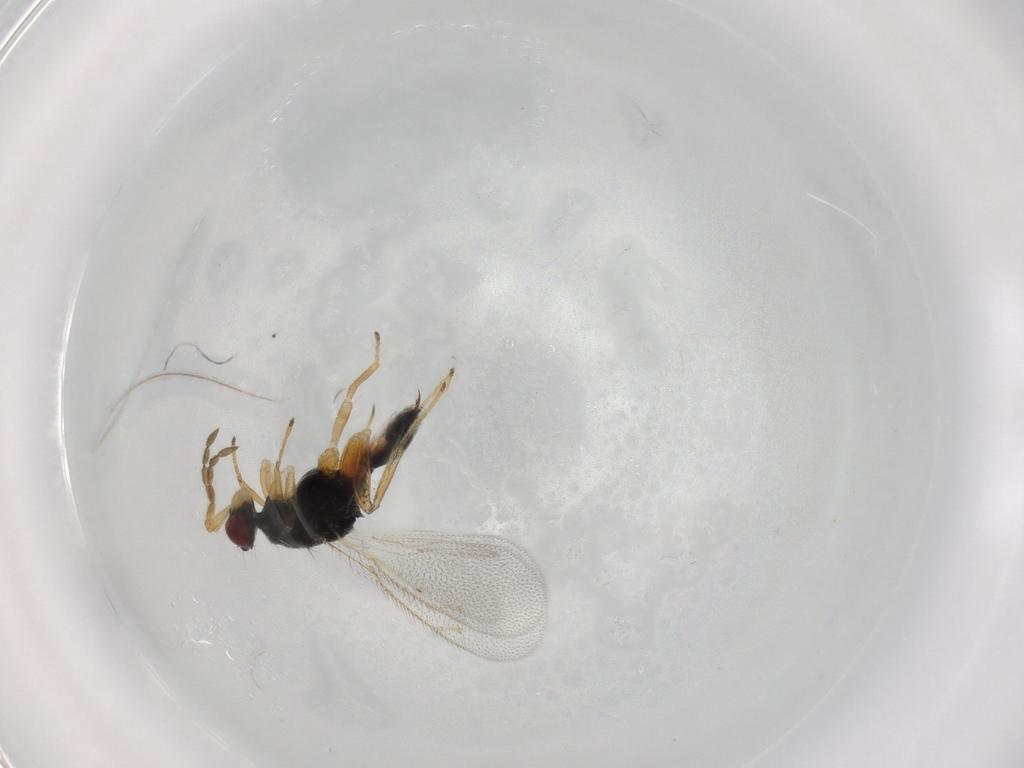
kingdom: Animalia
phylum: Arthropoda
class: Insecta
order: Hymenoptera
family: Eulophidae
